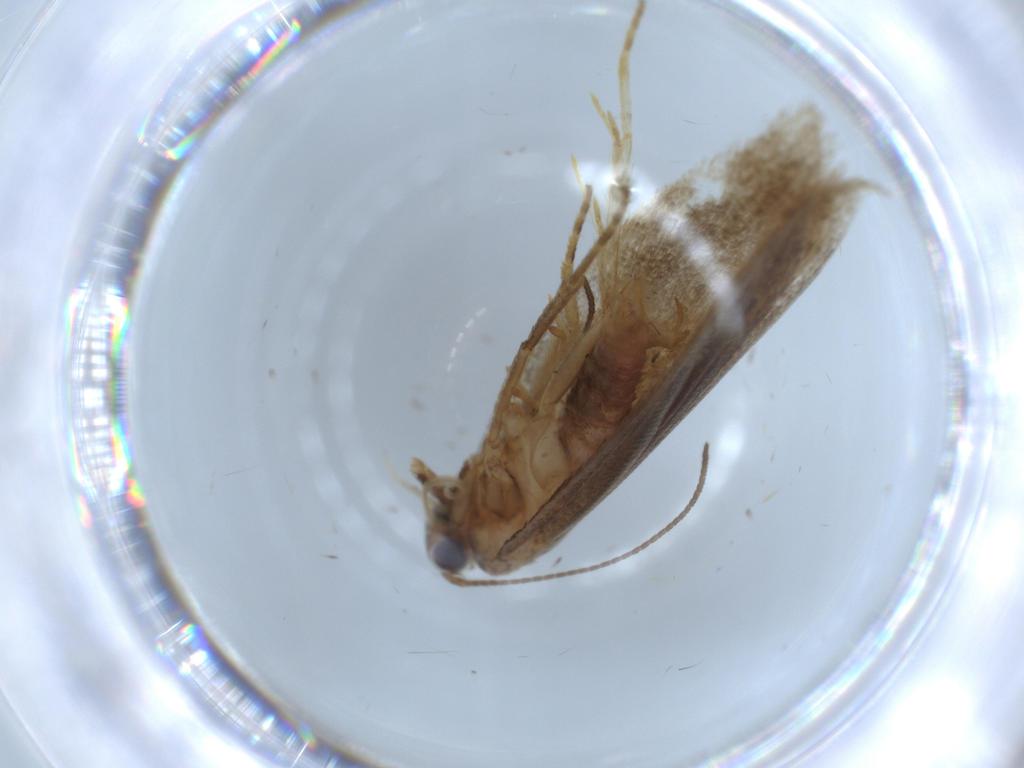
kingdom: Animalia
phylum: Arthropoda
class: Insecta
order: Lepidoptera
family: Oecophoridae
